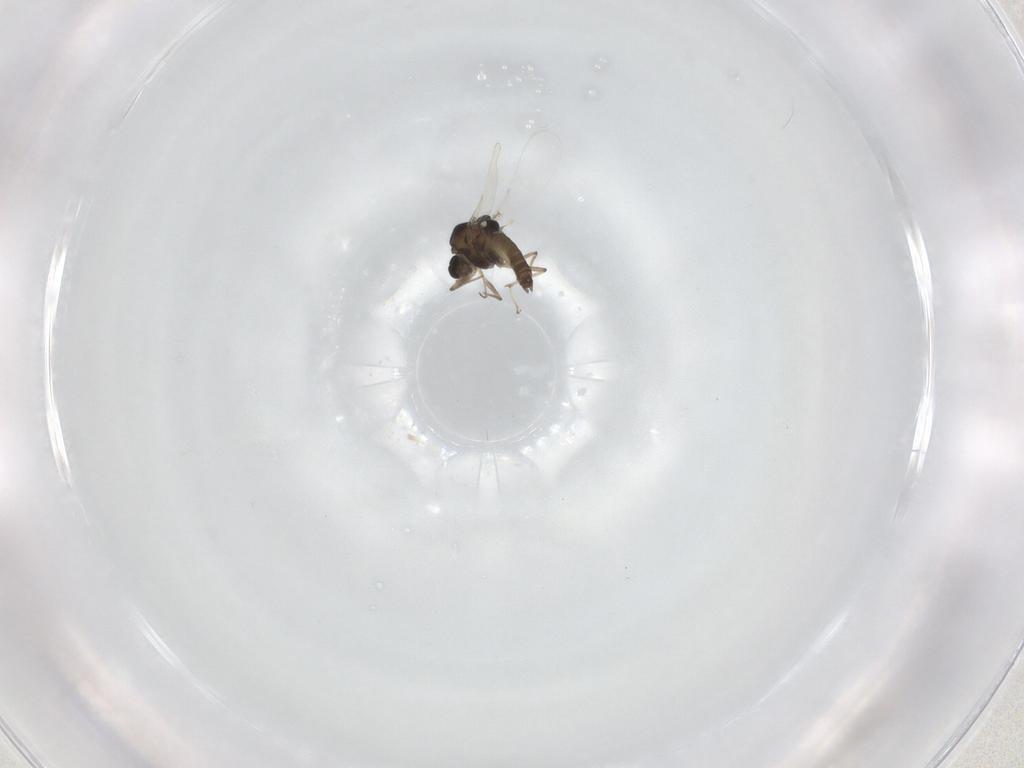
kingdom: Animalia
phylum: Arthropoda
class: Insecta
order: Diptera
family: Chironomidae
